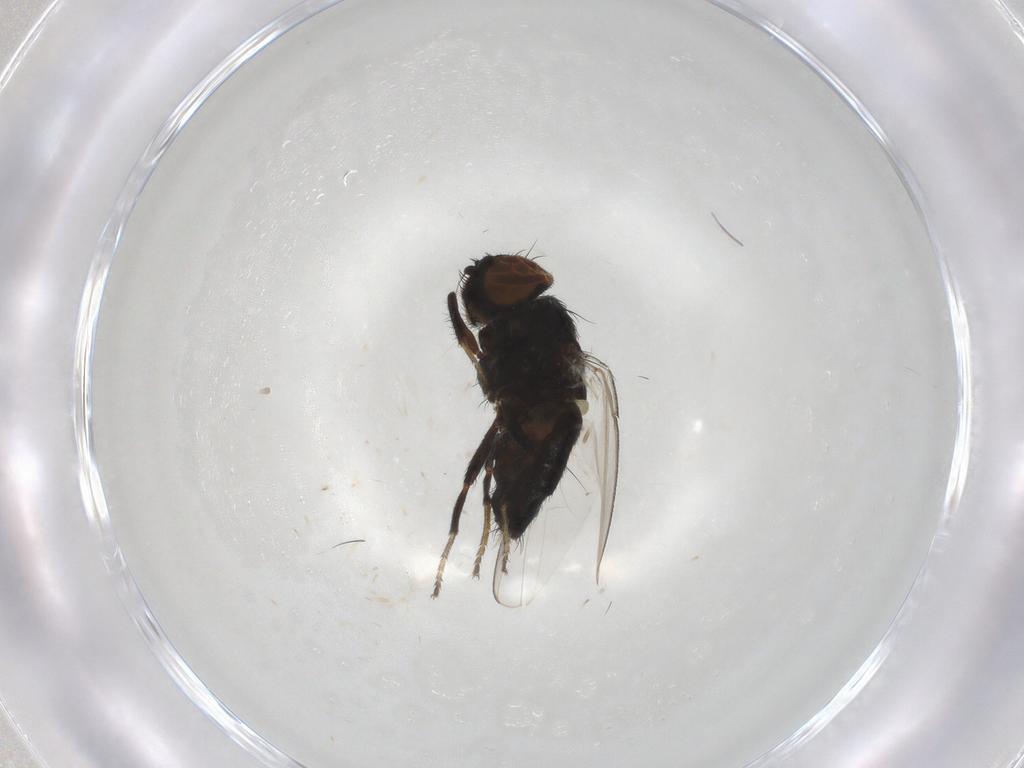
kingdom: Animalia
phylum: Arthropoda
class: Insecta
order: Diptera
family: Milichiidae
